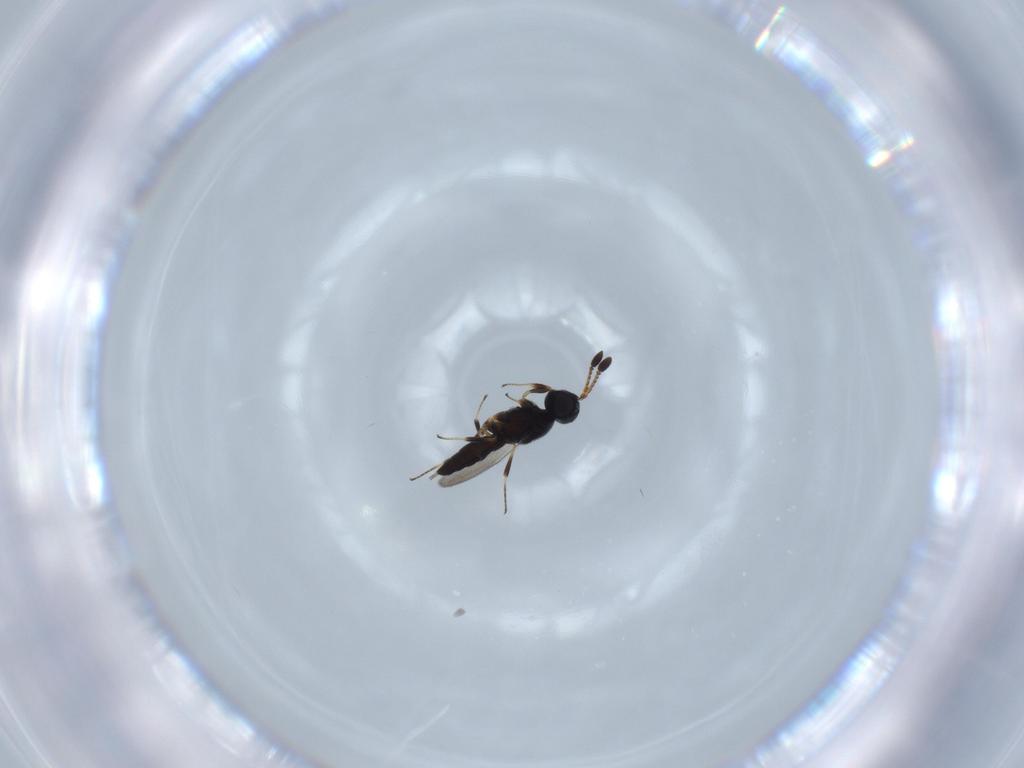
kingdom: Animalia
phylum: Arthropoda
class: Insecta
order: Hymenoptera
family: Scelionidae
